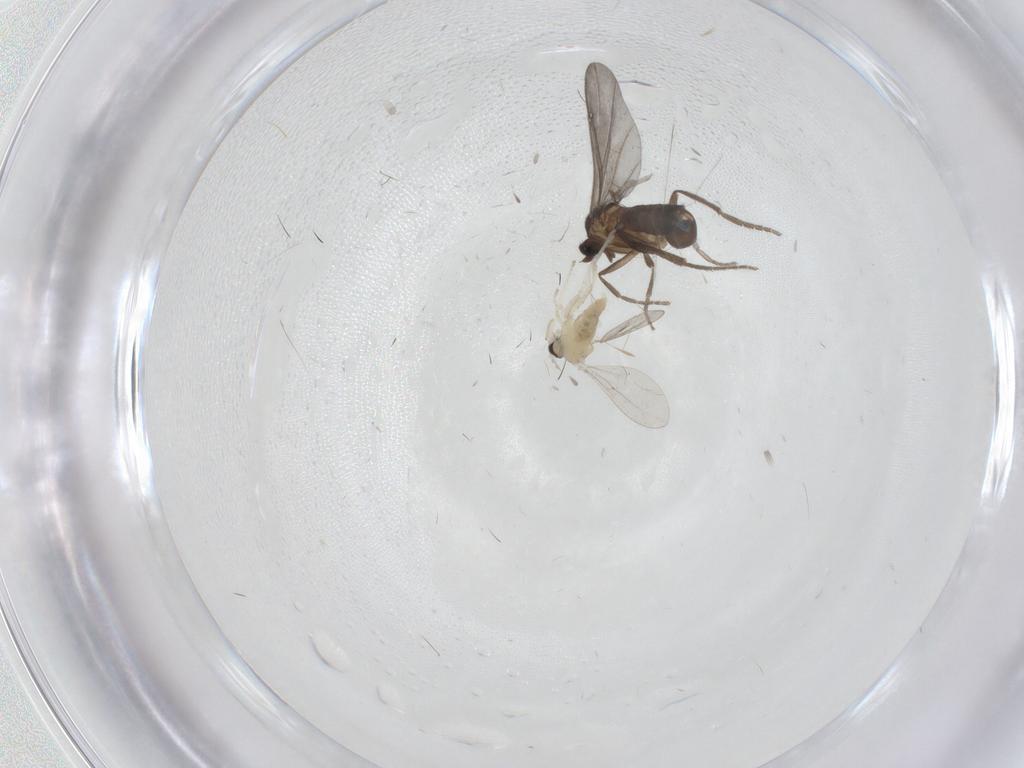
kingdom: Animalia
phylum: Arthropoda
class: Insecta
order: Diptera
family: Phoridae
